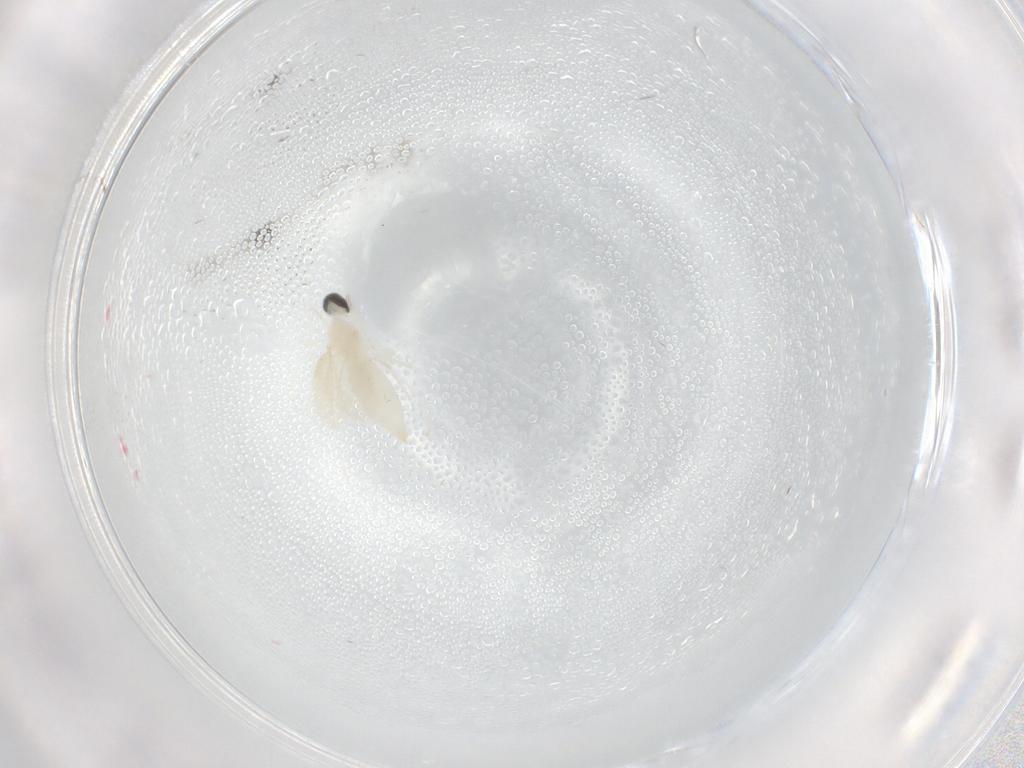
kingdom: Animalia
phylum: Arthropoda
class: Insecta
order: Diptera
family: Cecidomyiidae
